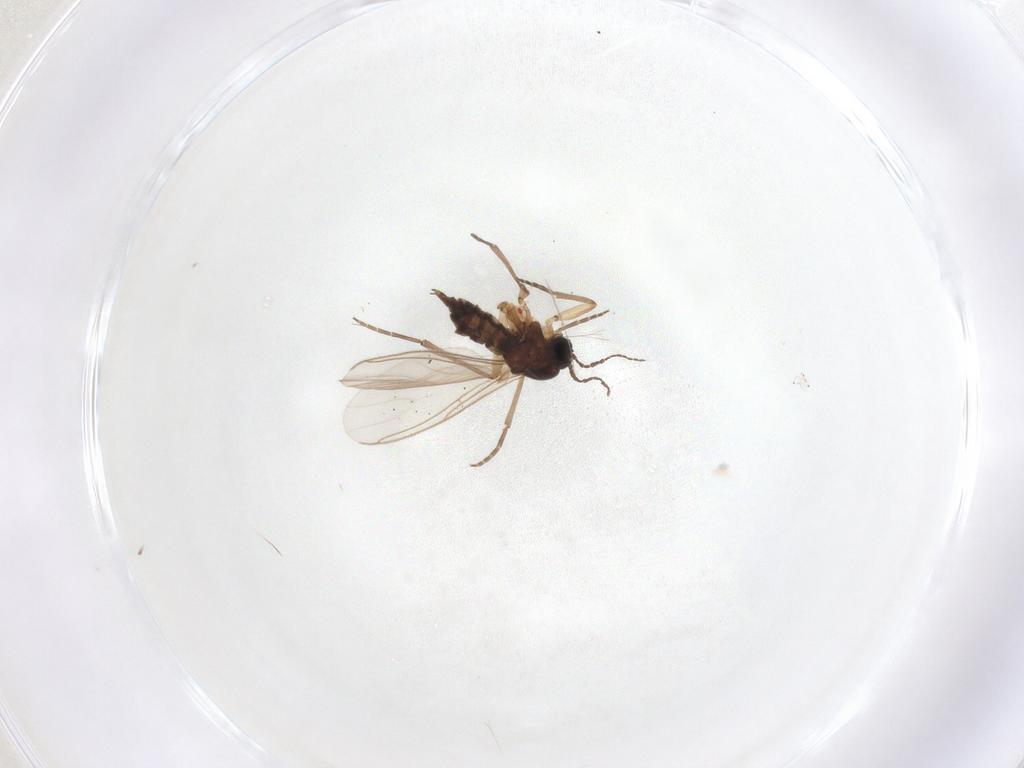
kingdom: Animalia
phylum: Arthropoda
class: Insecta
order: Diptera
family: Sciaridae
